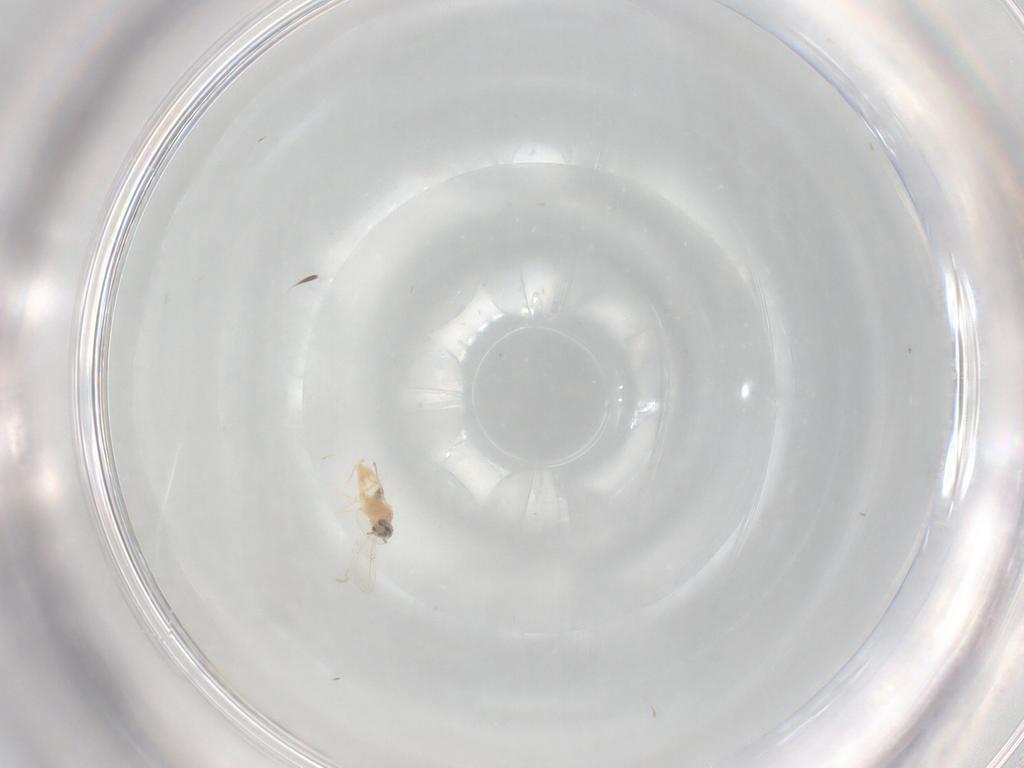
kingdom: Animalia
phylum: Arthropoda
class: Insecta
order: Diptera
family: Cecidomyiidae
